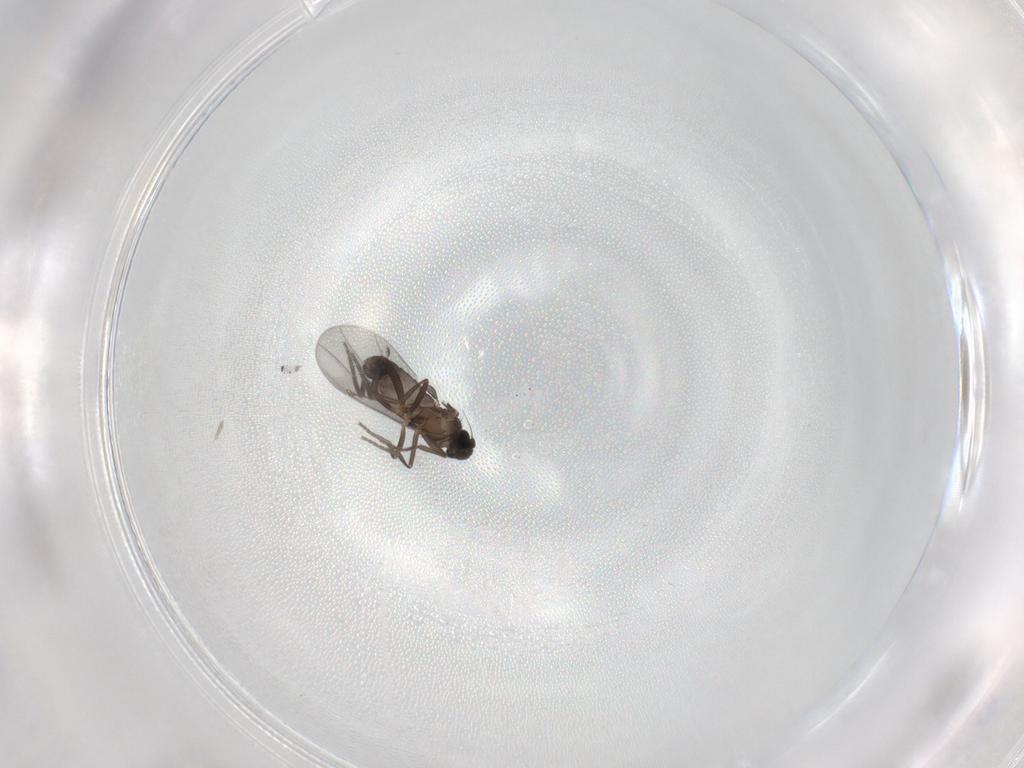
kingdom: Animalia
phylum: Arthropoda
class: Insecta
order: Diptera
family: Phoridae
